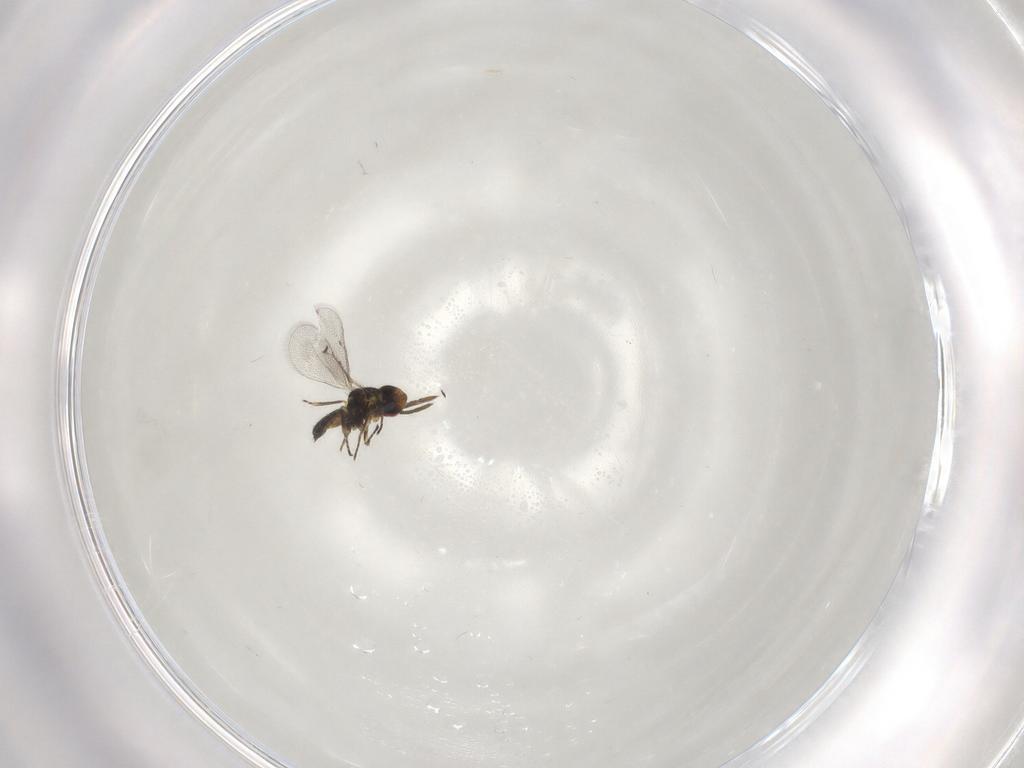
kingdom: Animalia
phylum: Arthropoda
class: Insecta
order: Hymenoptera
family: Eulophidae
